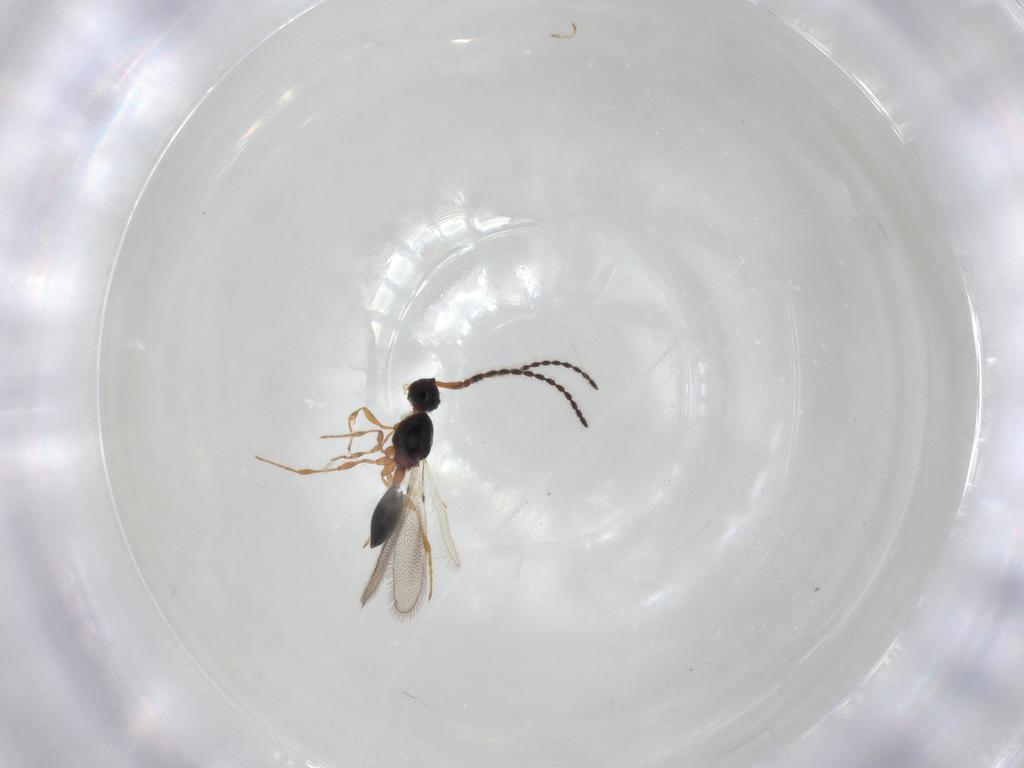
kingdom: Animalia
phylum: Arthropoda
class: Insecta
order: Hymenoptera
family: Diapriidae
